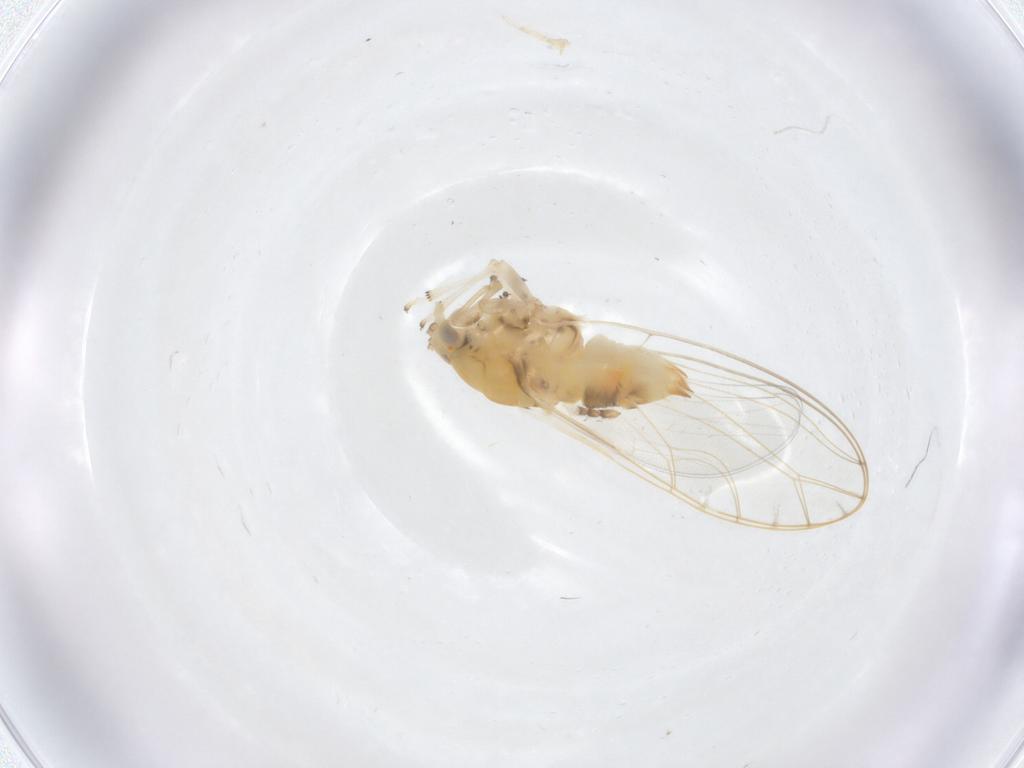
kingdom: Animalia
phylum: Arthropoda
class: Insecta
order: Hemiptera
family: Triozidae
